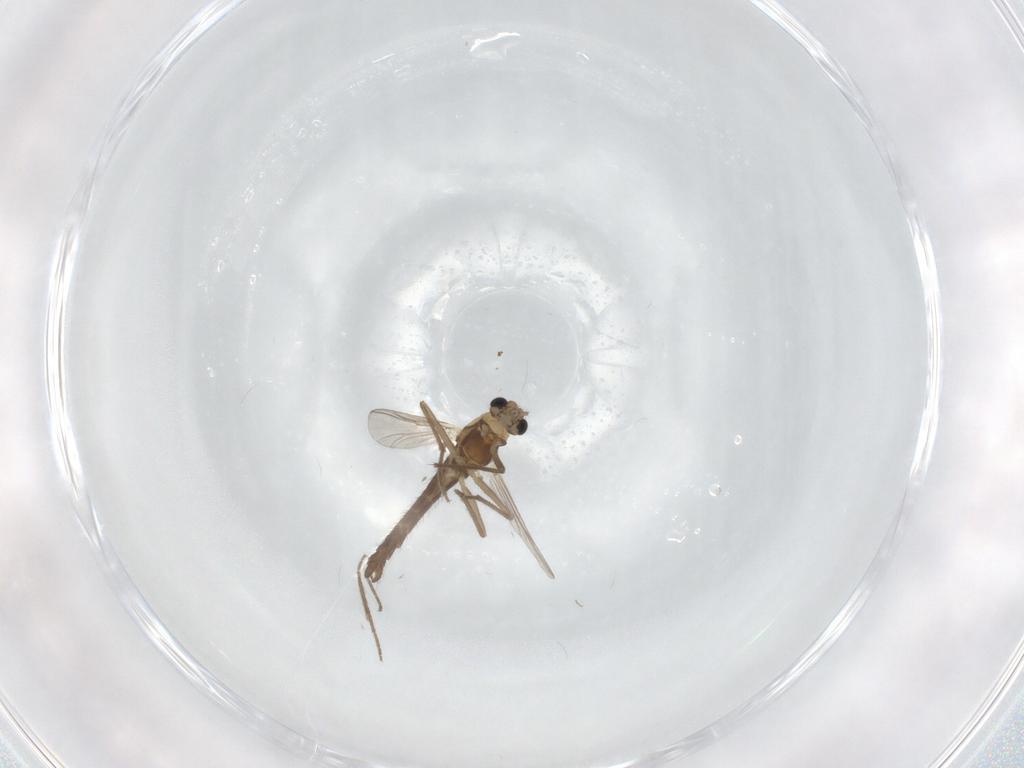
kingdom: Animalia
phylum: Arthropoda
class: Insecta
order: Diptera
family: Chironomidae
